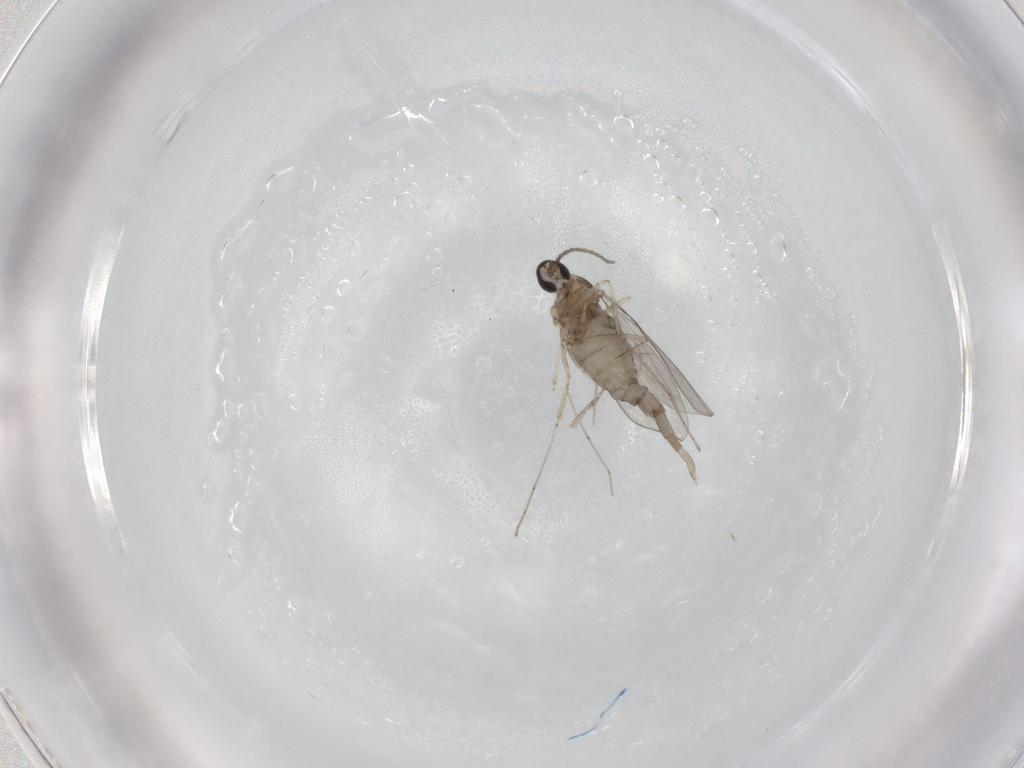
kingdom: Animalia
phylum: Arthropoda
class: Insecta
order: Diptera
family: Cecidomyiidae
